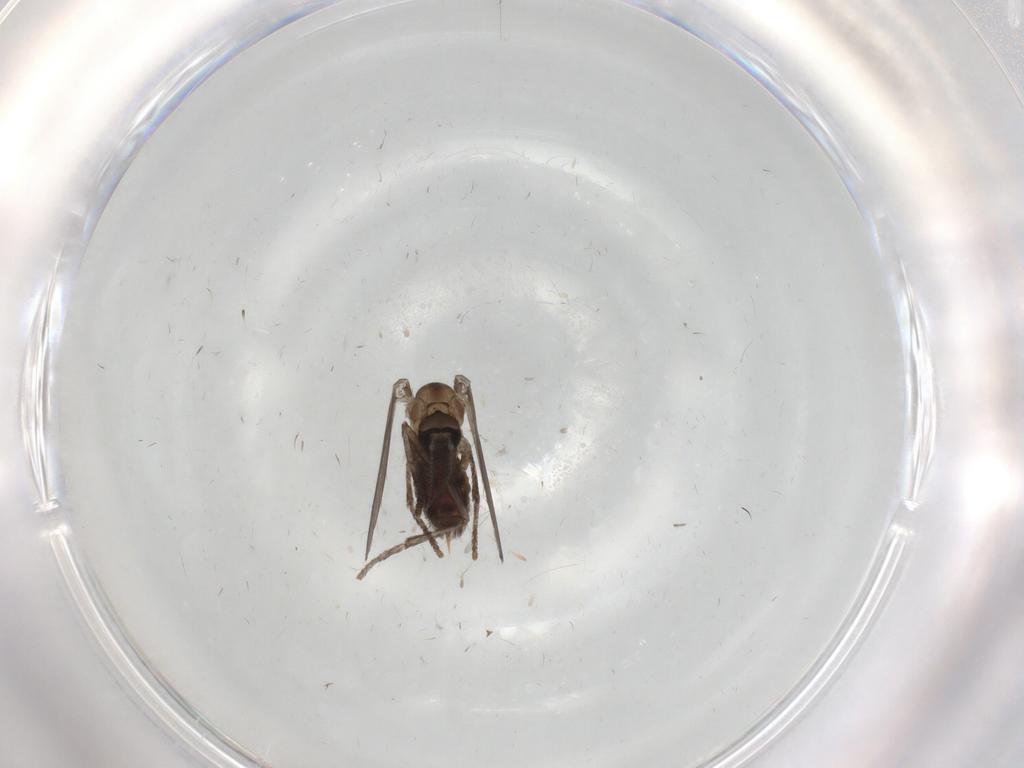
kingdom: Animalia
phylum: Arthropoda
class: Insecta
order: Diptera
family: Psychodidae
